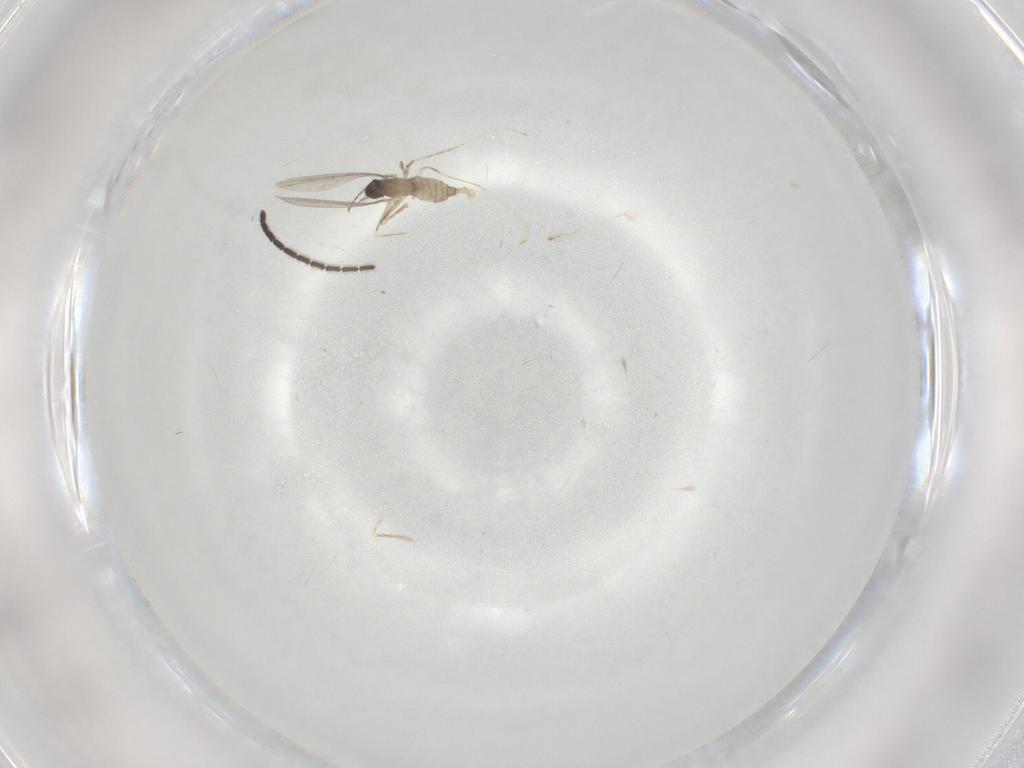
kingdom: Animalia
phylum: Arthropoda
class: Insecta
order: Diptera
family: Cecidomyiidae
